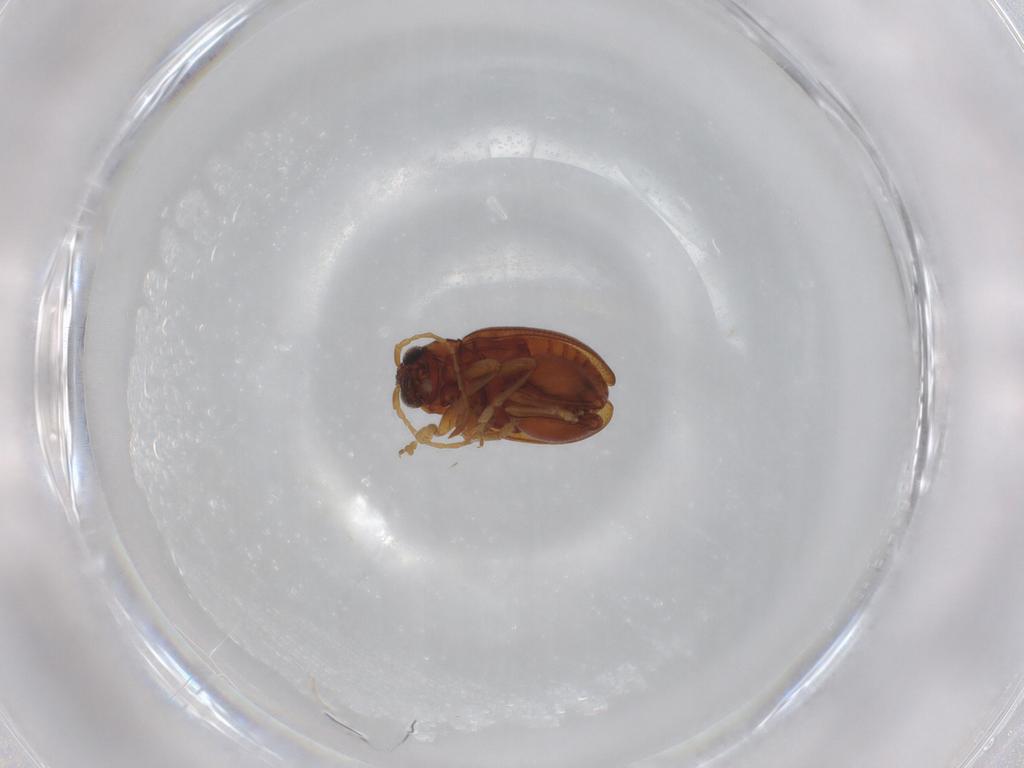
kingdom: Animalia
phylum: Arthropoda
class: Insecta
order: Coleoptera
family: Chrysomelidae
